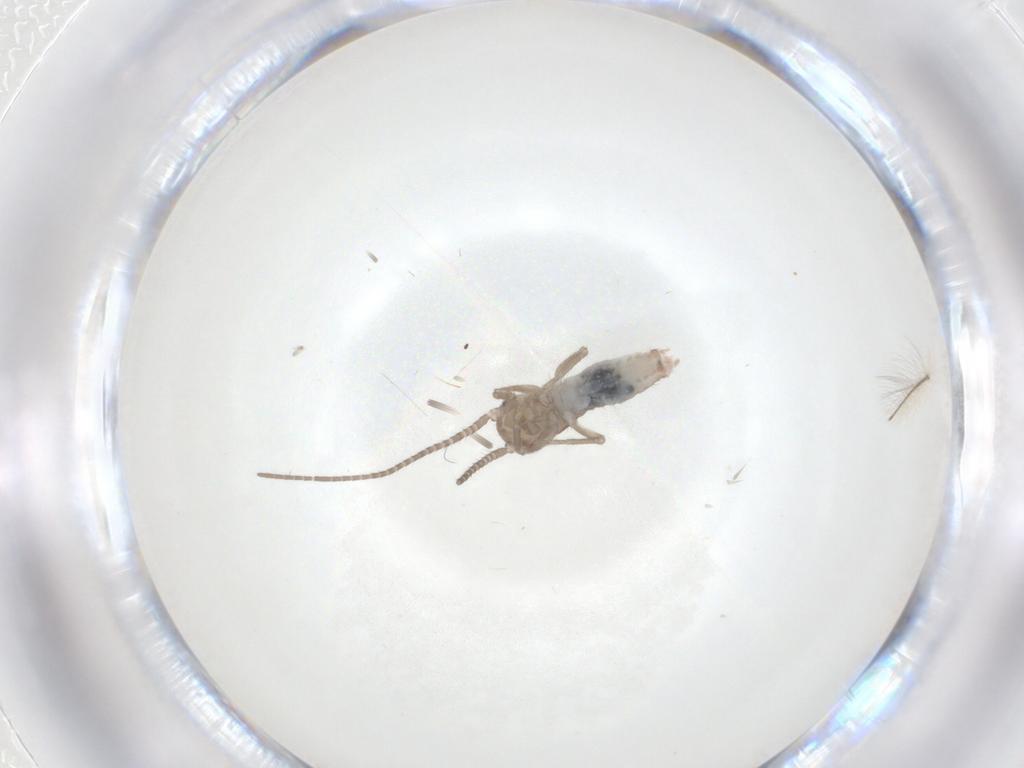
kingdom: Animalia
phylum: Arthropoda
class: Insecta
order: Diptera
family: Chironomidae
